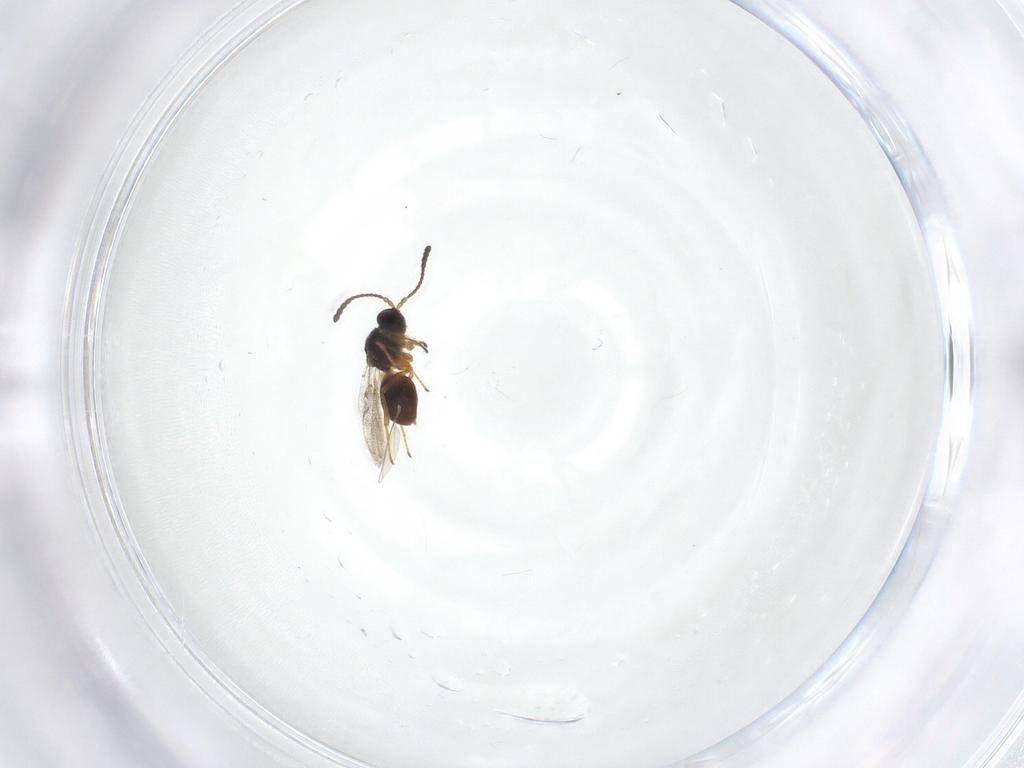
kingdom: Animalia
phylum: Arthropoda
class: Insecta
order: Hymenoptera
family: Figitidae
